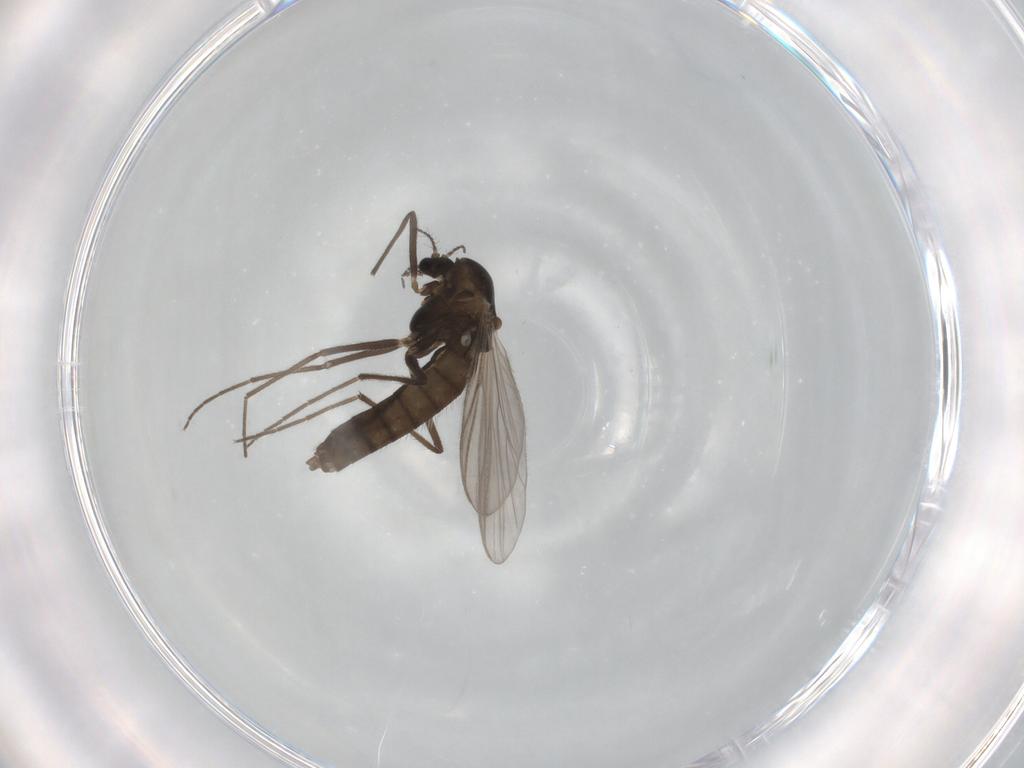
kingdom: Animalia
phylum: Arthropoda
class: Insecta
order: Diptera
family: Chironomidae
